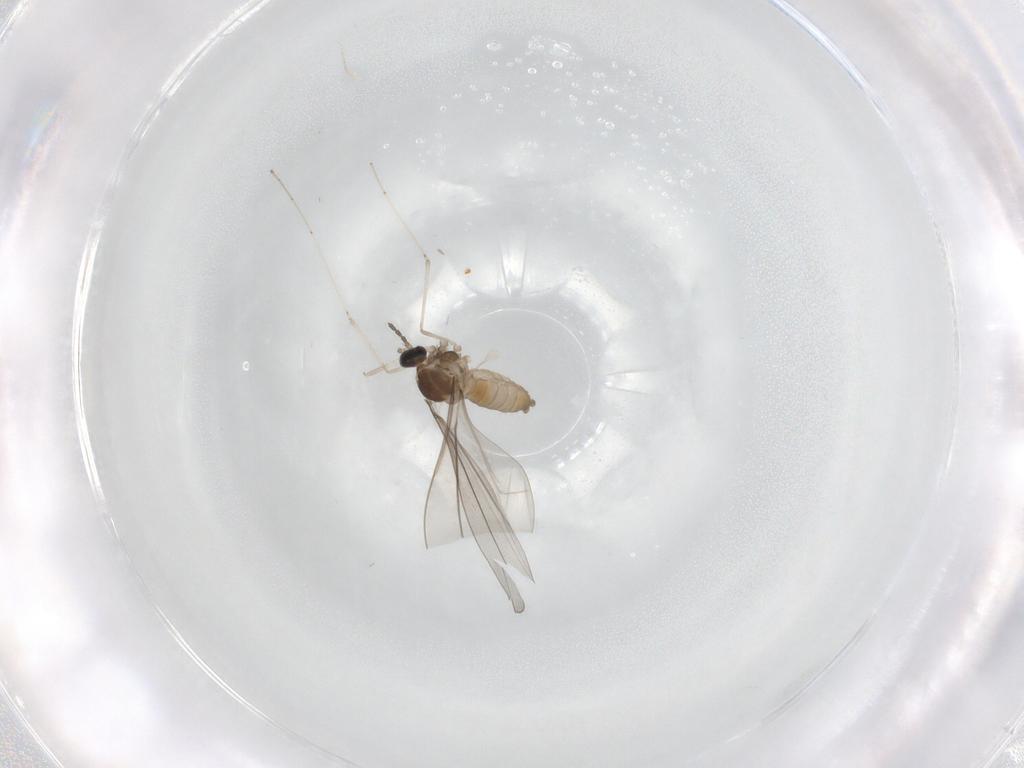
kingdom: Animalia
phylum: Arthropoda
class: Insecta
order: Diptera
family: Cecidomyiidae
